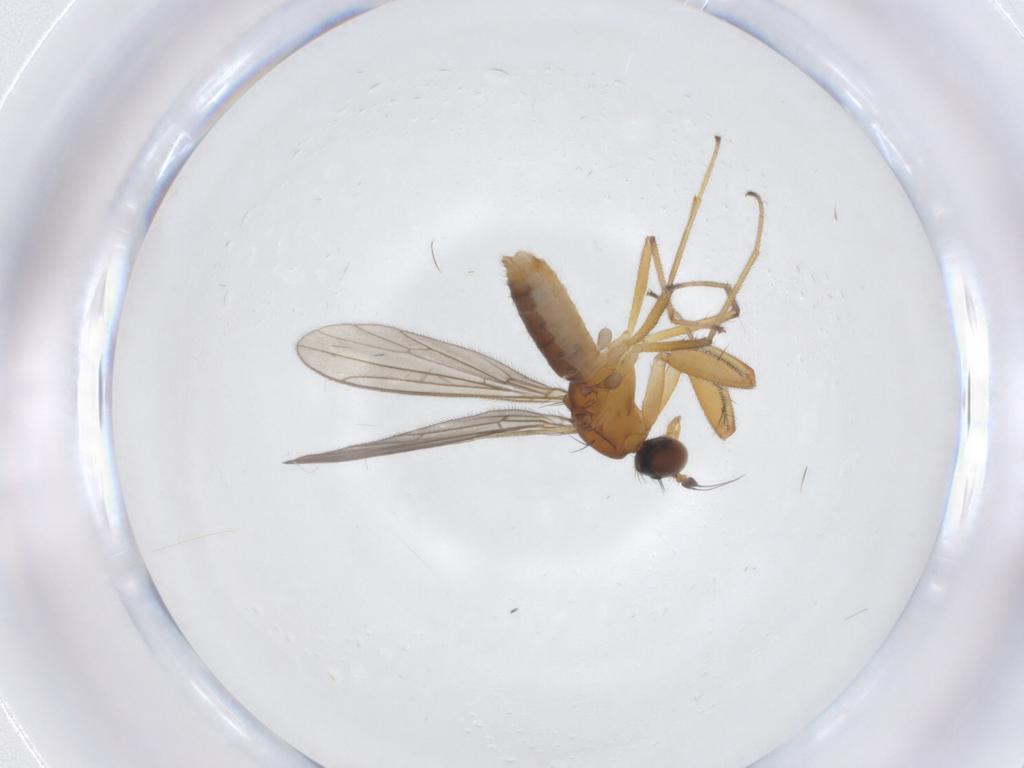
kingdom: Animalia
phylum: Arthropoda
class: Insecta
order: Diptera
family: Empididae
